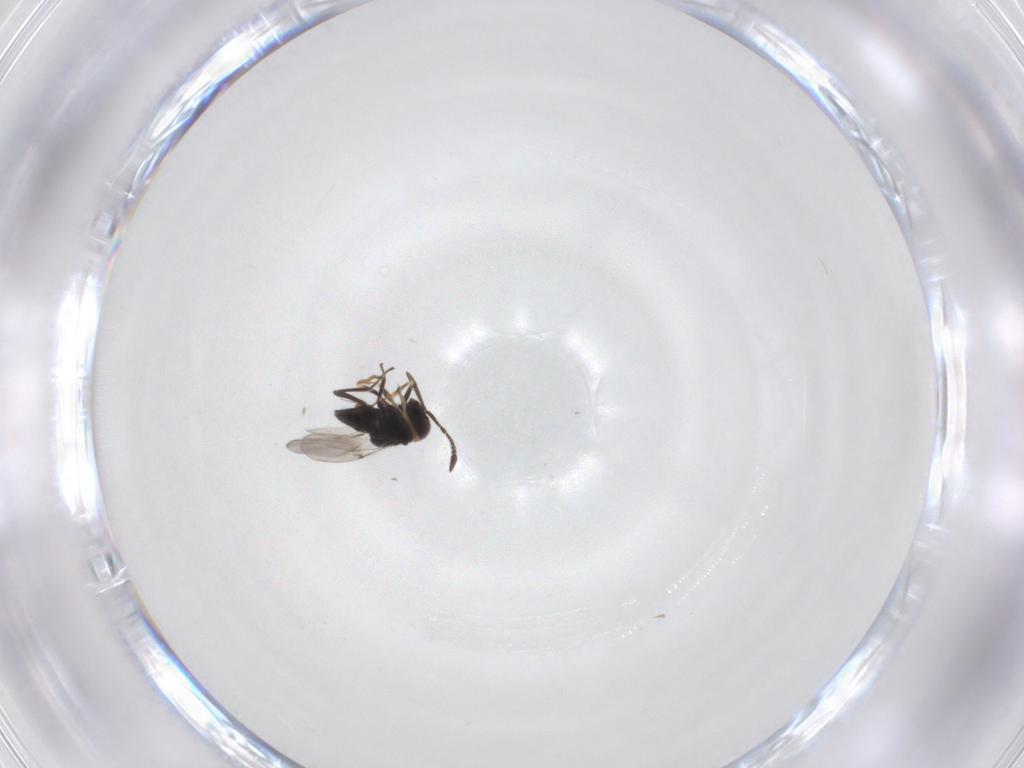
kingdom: Animalia
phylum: Arthropoda
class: Insecta
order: Hymenoptera
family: Encyrtidae
